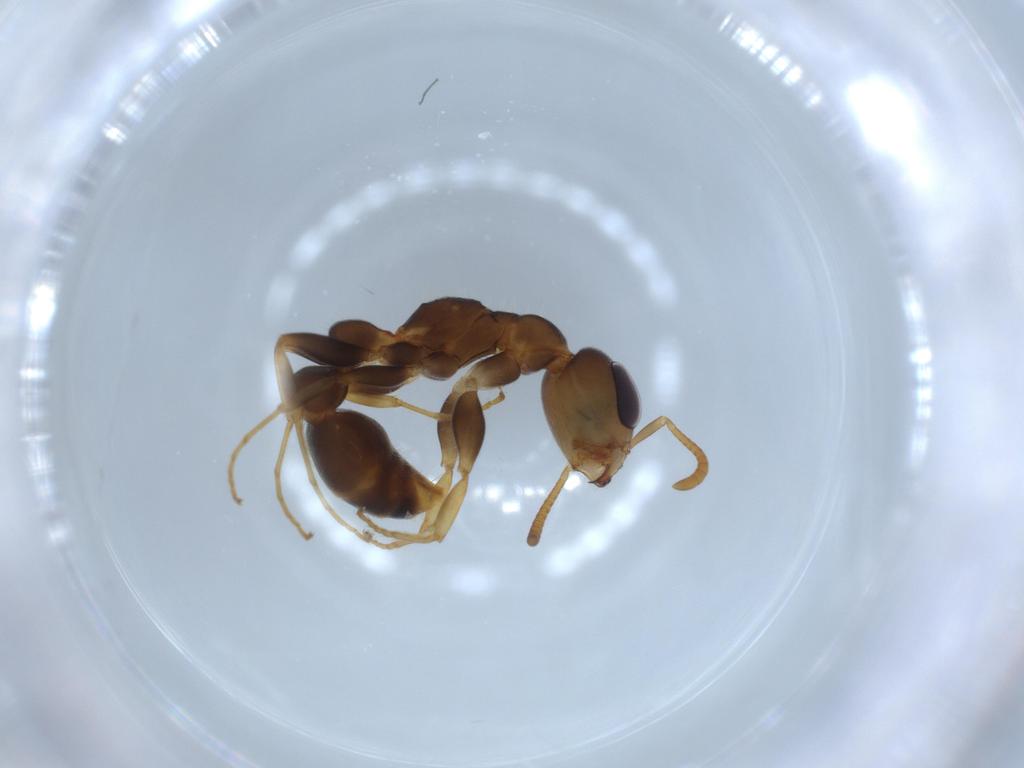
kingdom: Animalia
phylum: Arthropoda
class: Insecta
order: Hymenoptera
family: Formicidae
